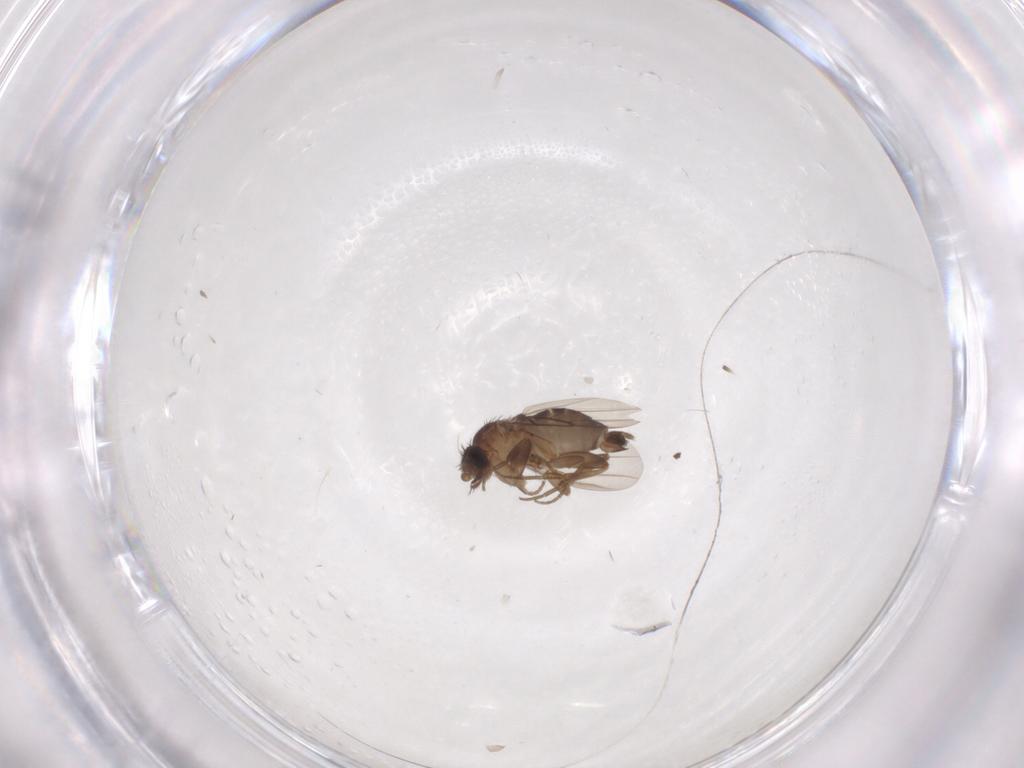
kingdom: Animalia
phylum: Arthropoda
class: Insecta
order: Diptera
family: Phoridae
